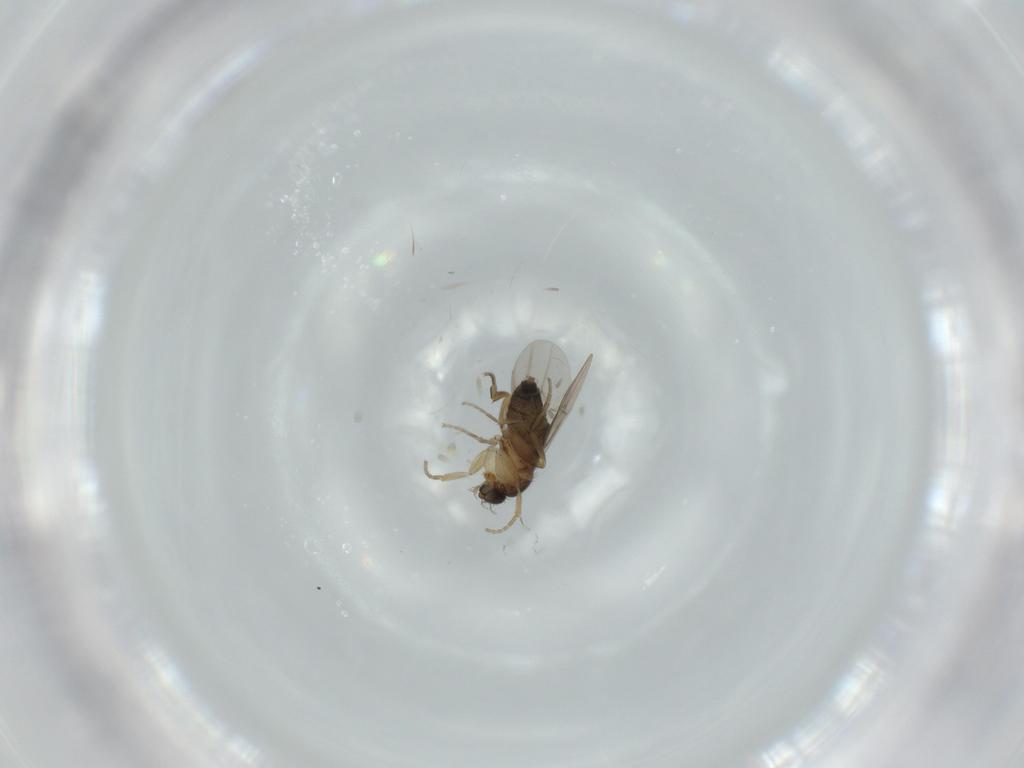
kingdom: Animalia
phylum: Arthropoda
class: Insecta
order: Diptera
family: Phoridae
